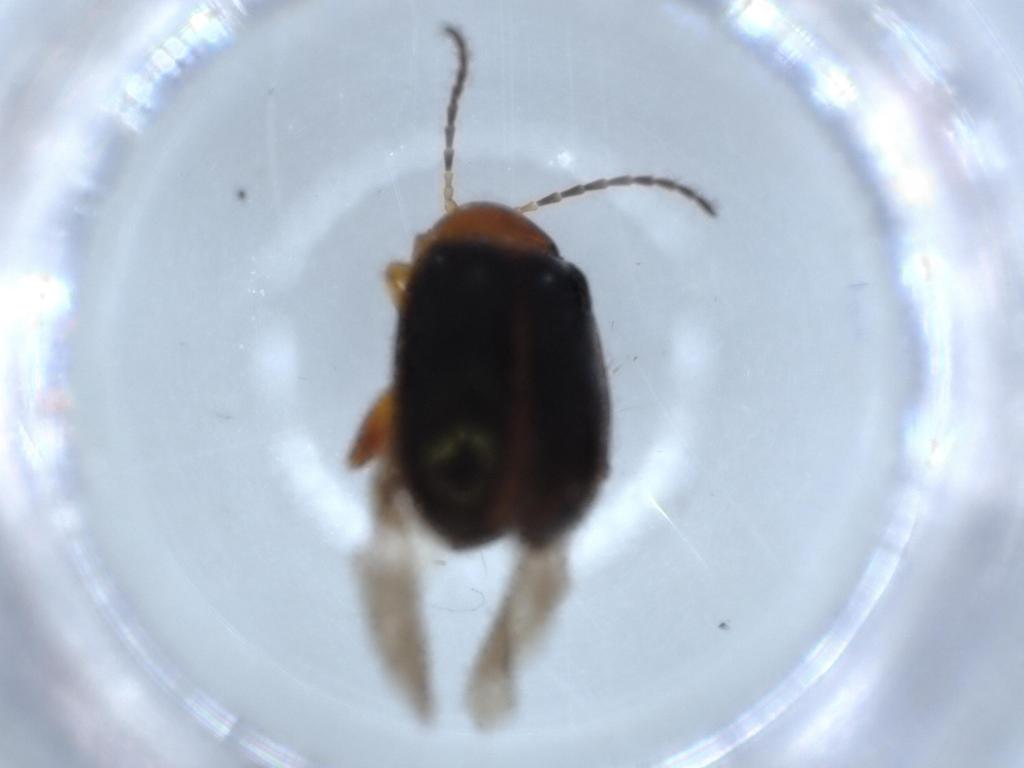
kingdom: Animalia
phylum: Arthropoda
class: Insecta
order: Coleoptera
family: Chrysomelidae
